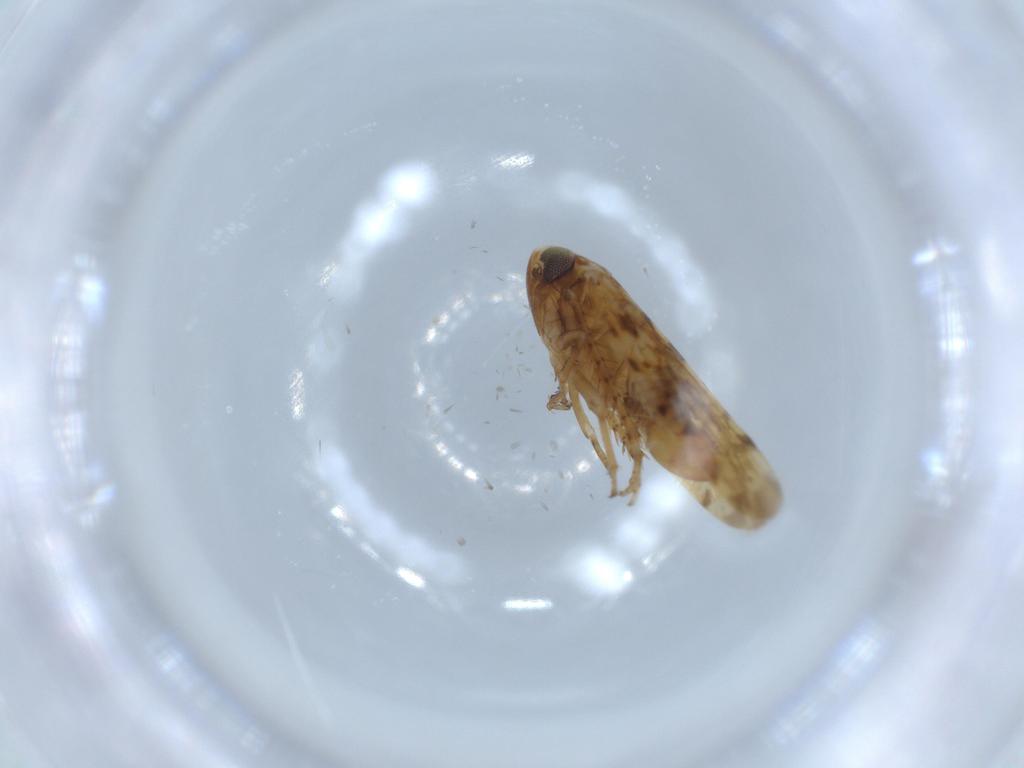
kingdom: Animalia
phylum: Arthropoda
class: Insecta
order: Hemiptera
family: Cicadellidae
